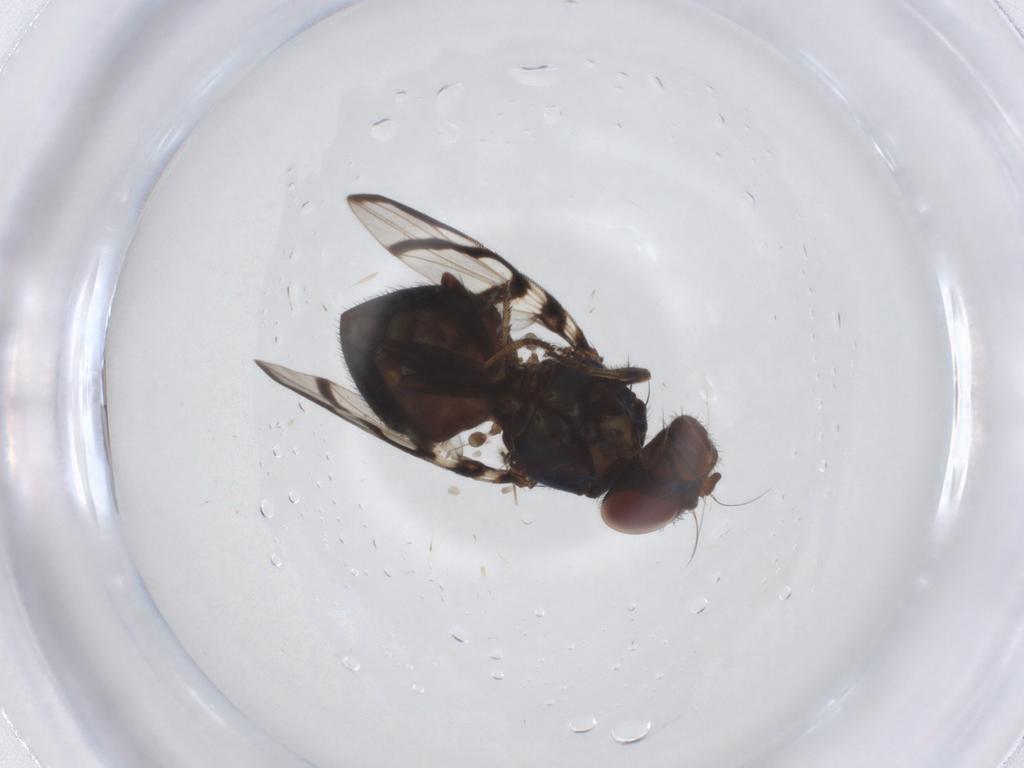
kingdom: Animalia
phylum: Arthropoda
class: Insecta
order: Diptera
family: Ulidiidae
